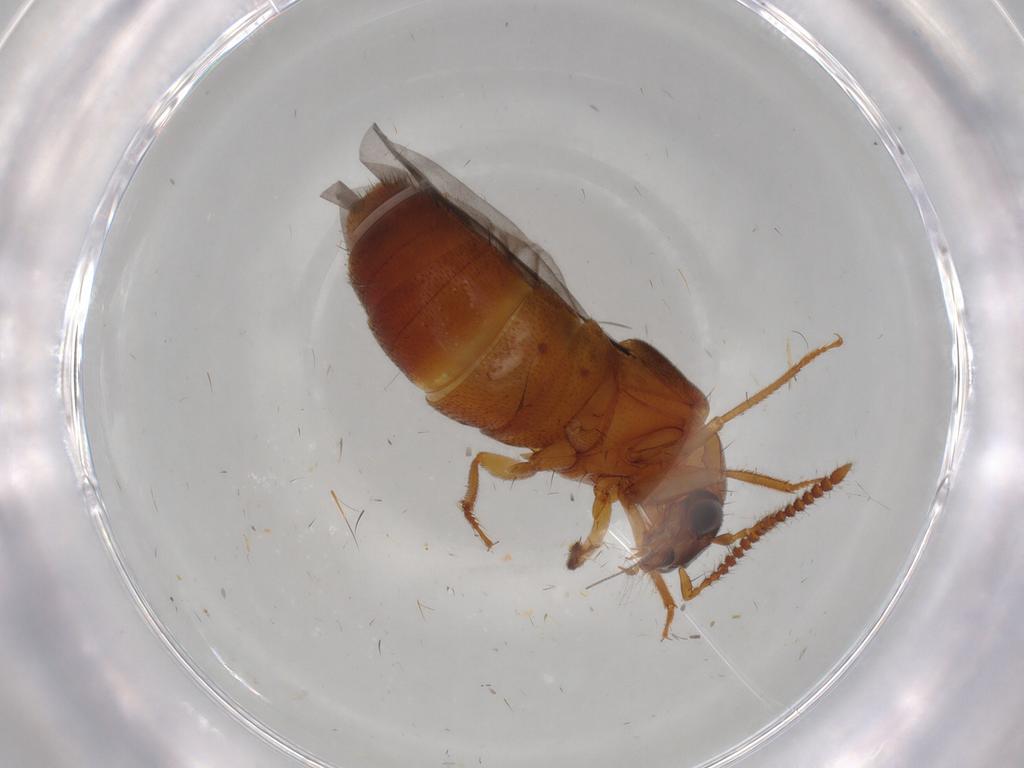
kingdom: Animalia
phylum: Arthropoda
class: Insecta
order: Coleoptera
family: Staphylinidae
